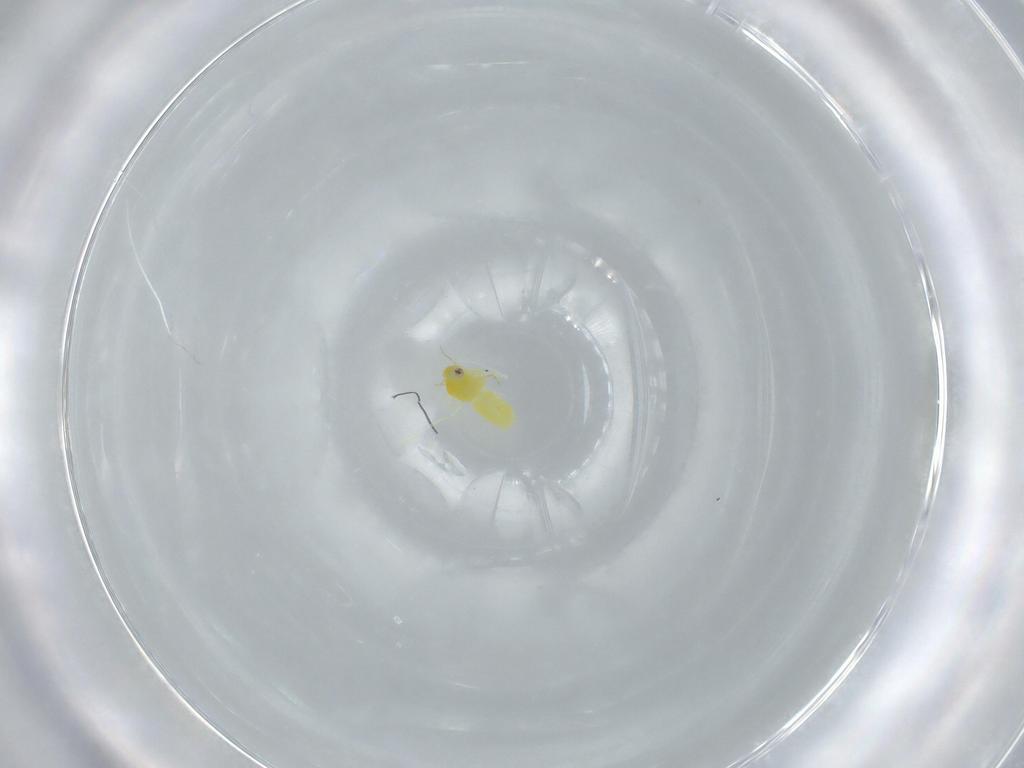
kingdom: Animalia
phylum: Arthropoda
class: Insecta
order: Hemiptera
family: Aleyrodidae
